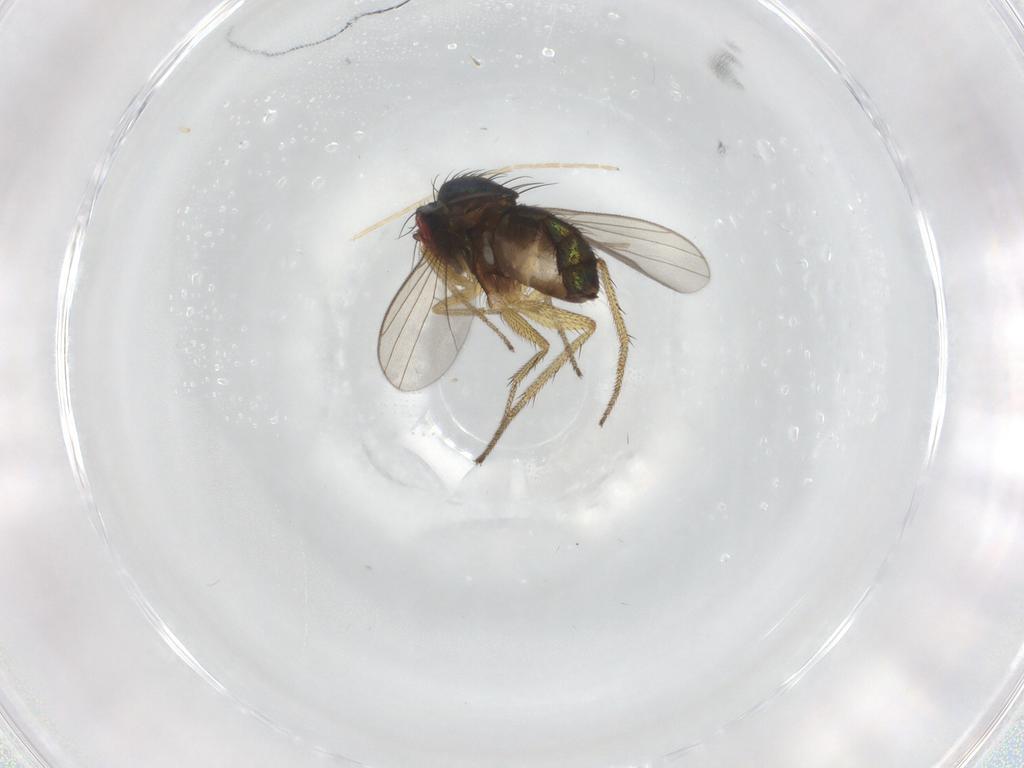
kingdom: Animalia
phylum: Arthropoda
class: Insecta
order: Diptera
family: Dolichopodidae
